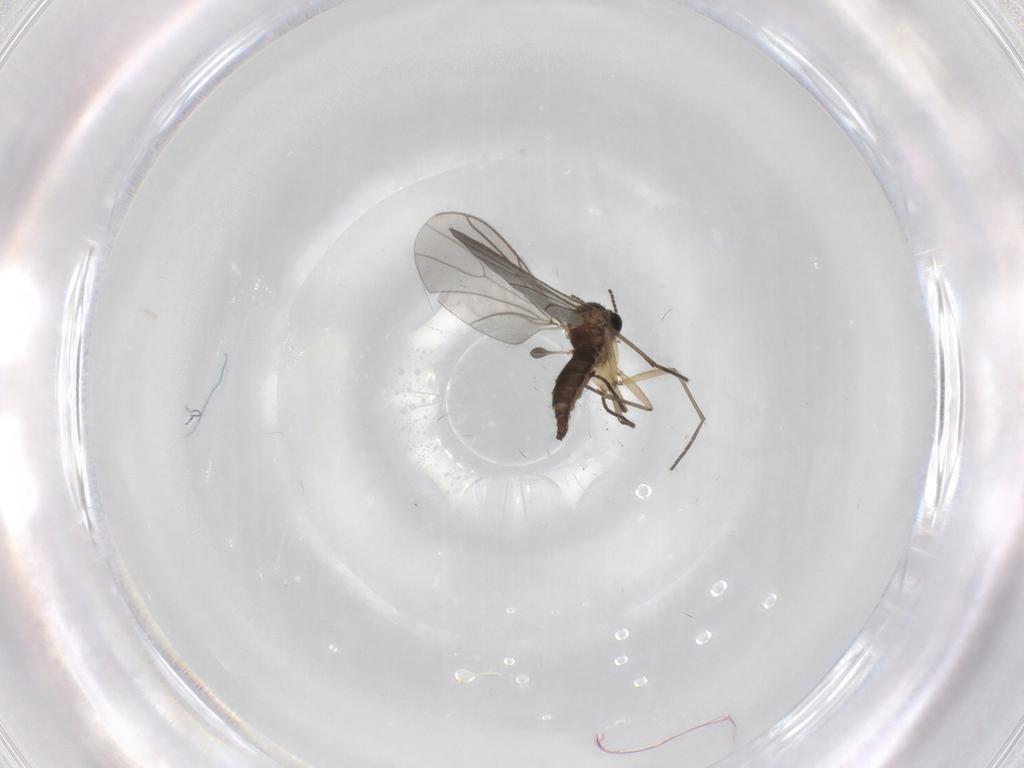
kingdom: Animalia
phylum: Arthropoda
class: Insecta
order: Diptera
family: Sciaridae
